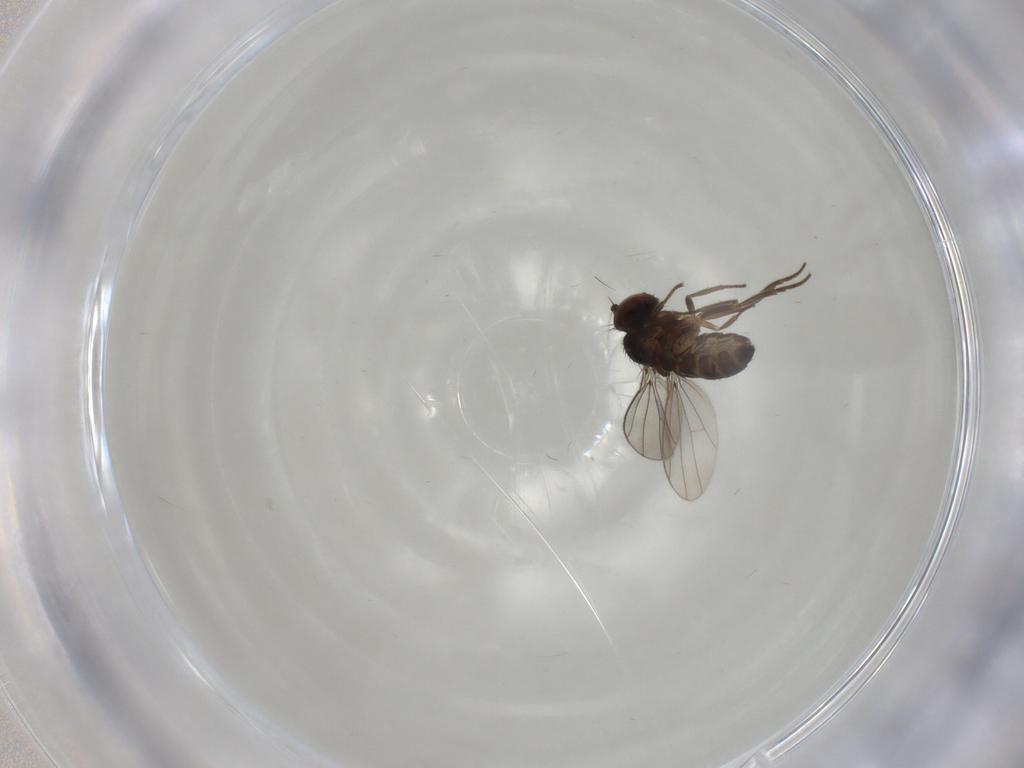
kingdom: Animalia
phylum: Arthropoda
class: Insecta
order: Diptera
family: Dolichopodidae
